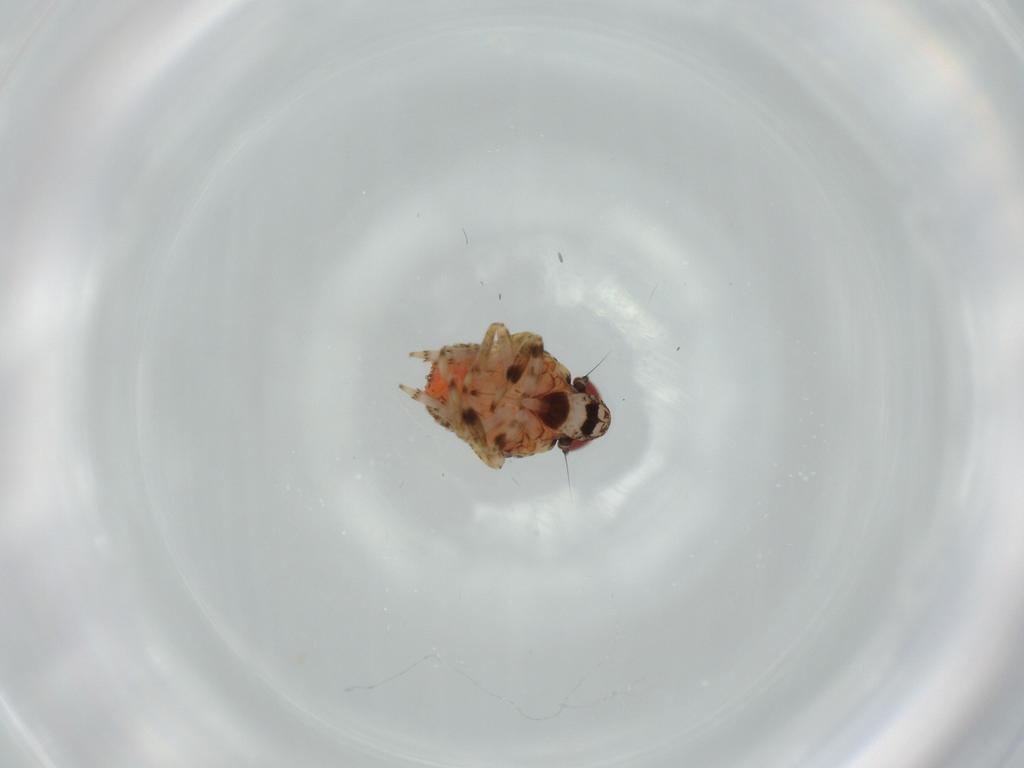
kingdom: Animalia
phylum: Arthropoda
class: Insecta
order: Hemiptera
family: Issidae
